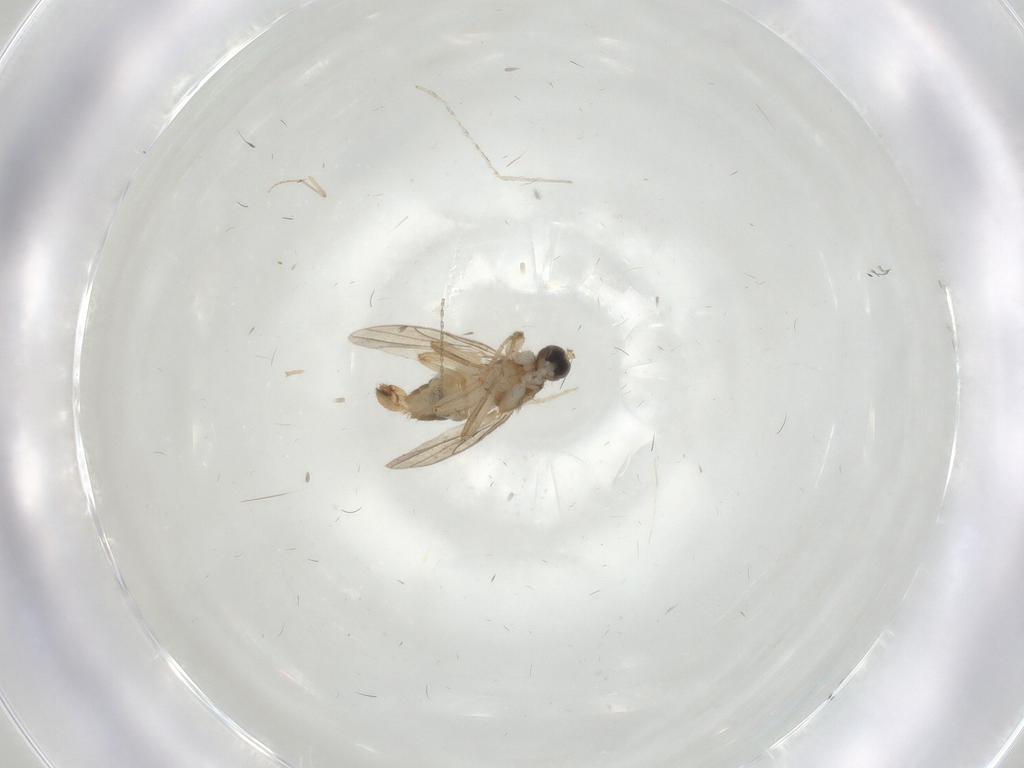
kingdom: Animalia
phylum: Arthropoda
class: Insecta
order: Diptera
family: Hybotidae
